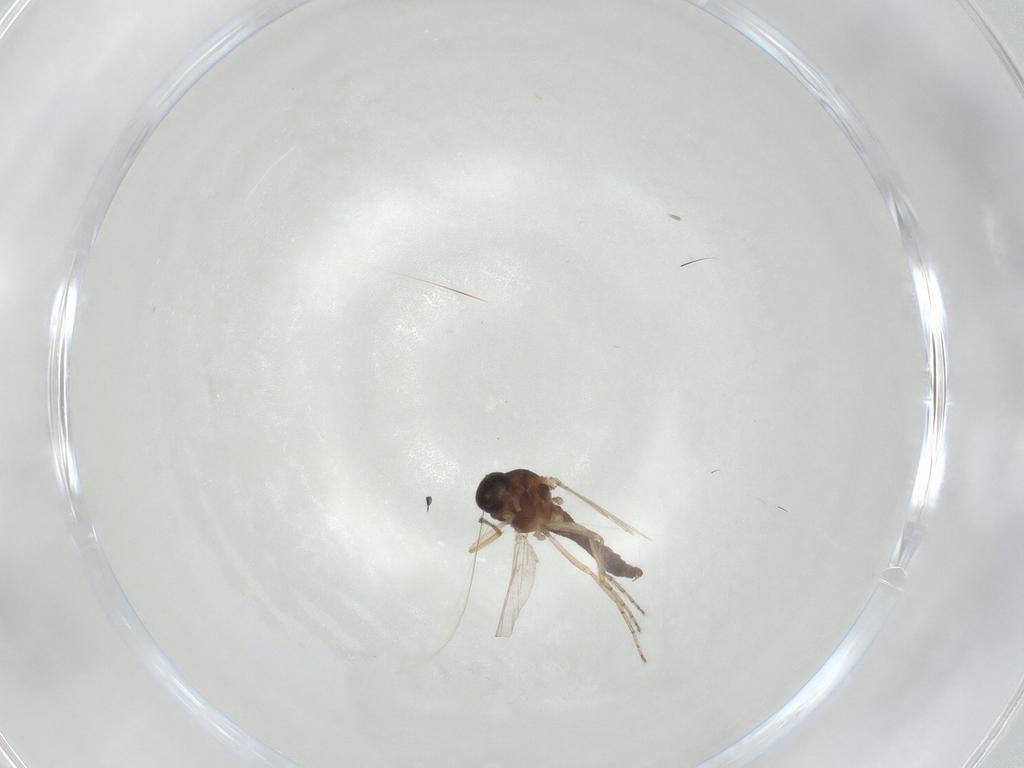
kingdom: Animalia
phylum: Arthropoda
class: Insecta
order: Diptera
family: Ceratopogonidae
